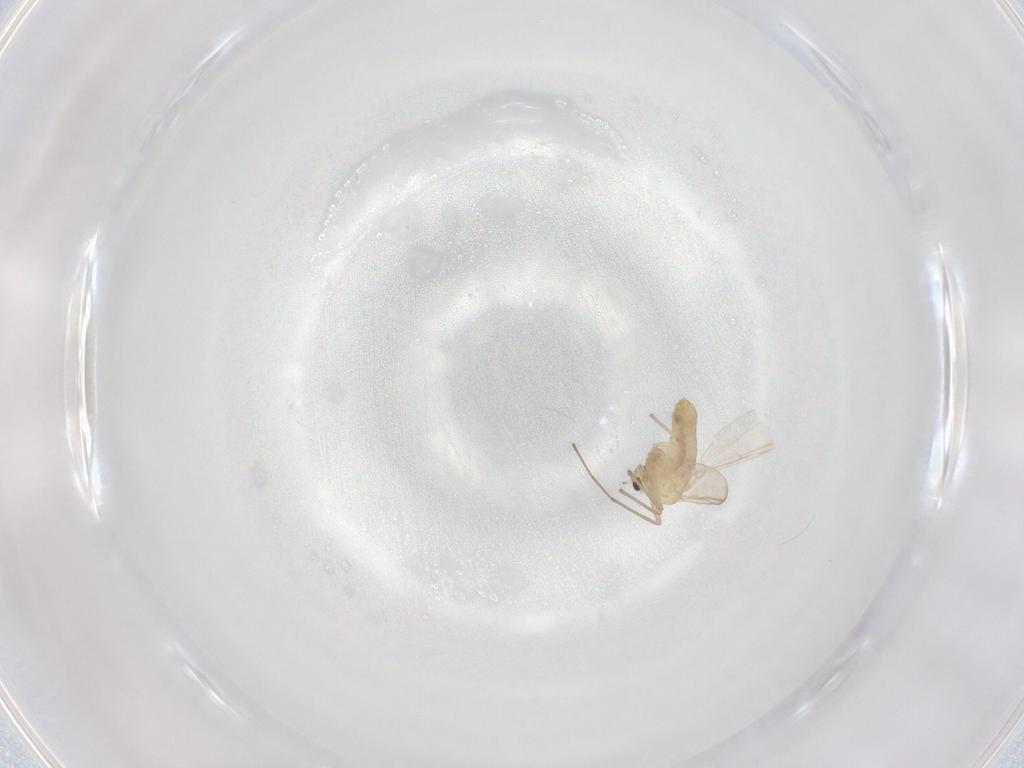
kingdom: Animalia
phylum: Arthropoda
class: Insecta
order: Diptera
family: Chironomidae
